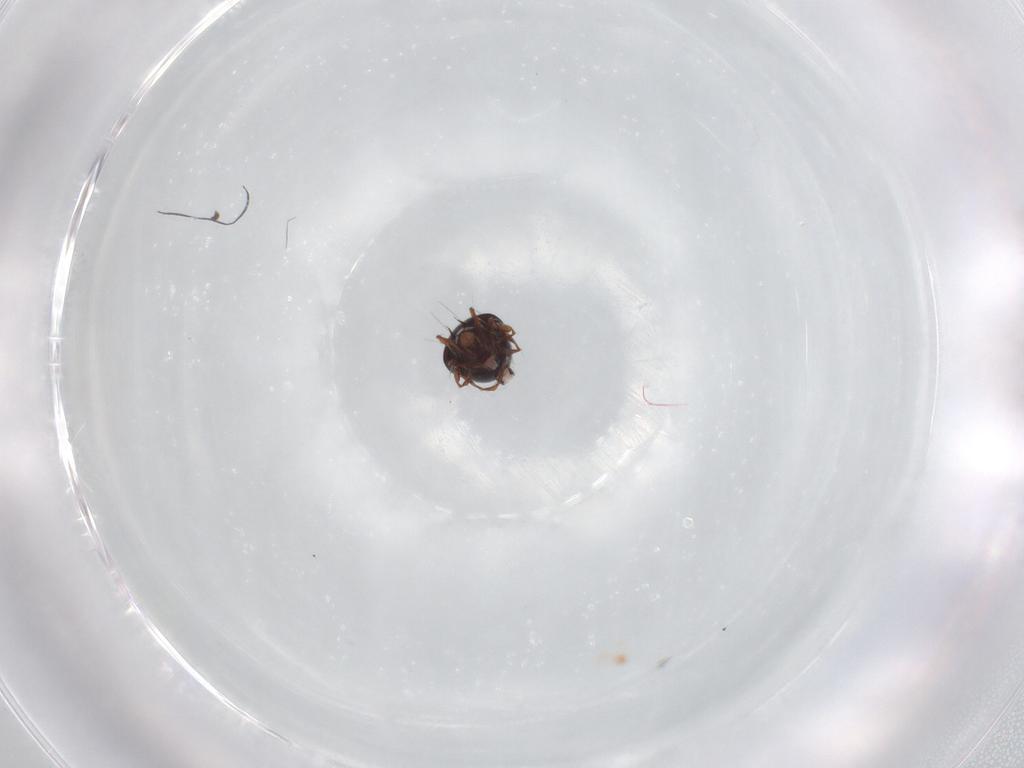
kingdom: Animalia
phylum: Arthropoda
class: Arachnida
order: Sarcoptiformes
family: Ceratoppiidae
